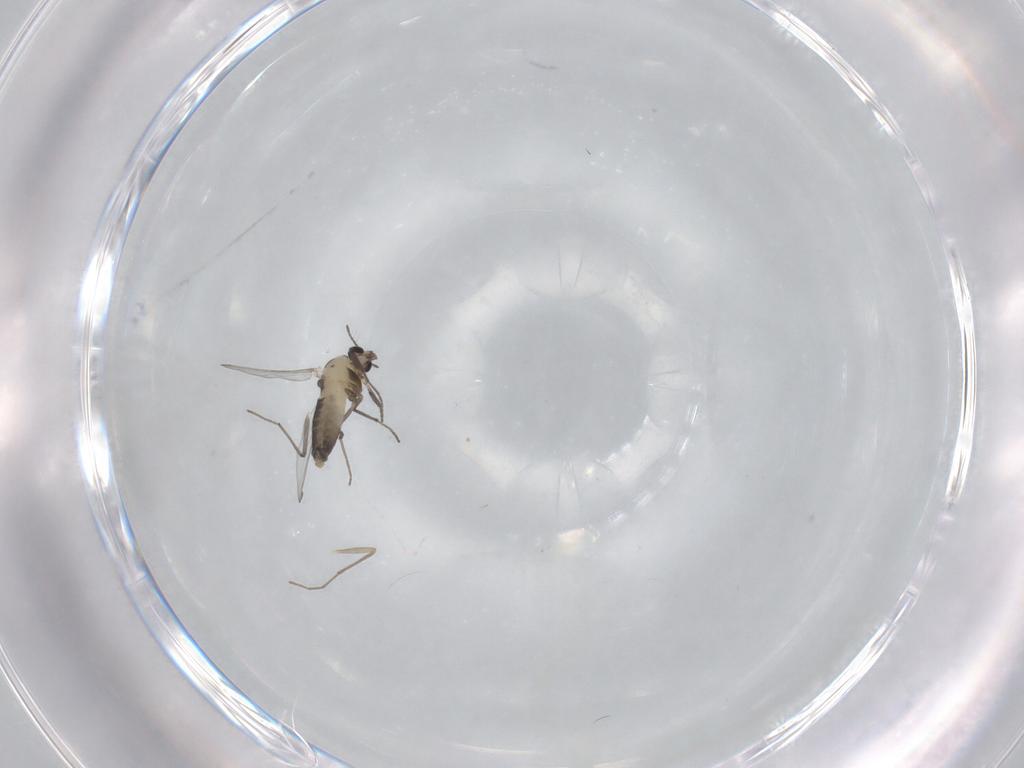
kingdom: Animalia
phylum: Arthropoda
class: Insecta
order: Diptera
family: Chironomidae
